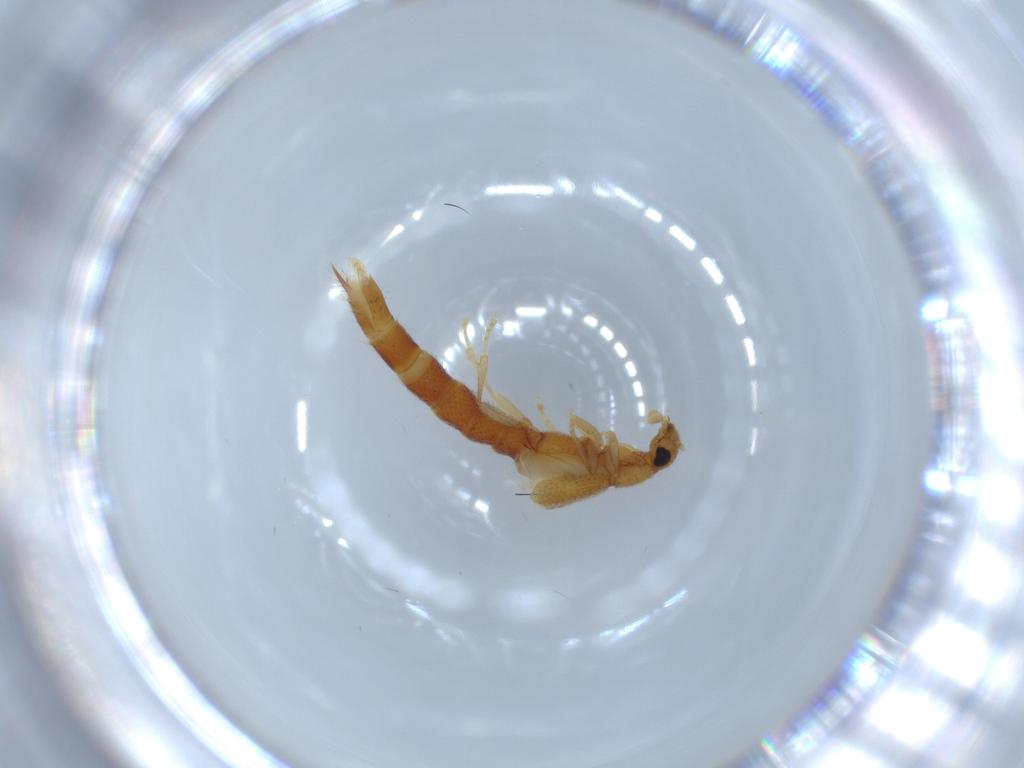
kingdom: Animalia
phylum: Arthropoda
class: Insecta
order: Coleoptera
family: Staphylinidae
